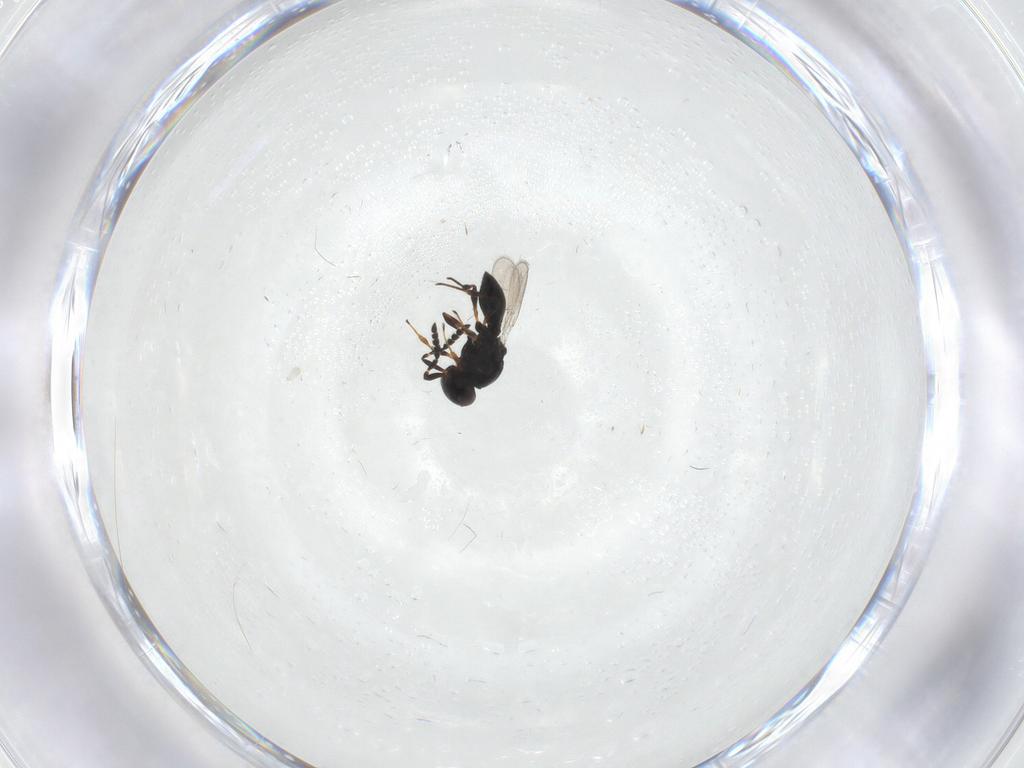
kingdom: Animalia
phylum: Arthropoda
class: Insecta
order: Hymenoptera
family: Platygastridae
